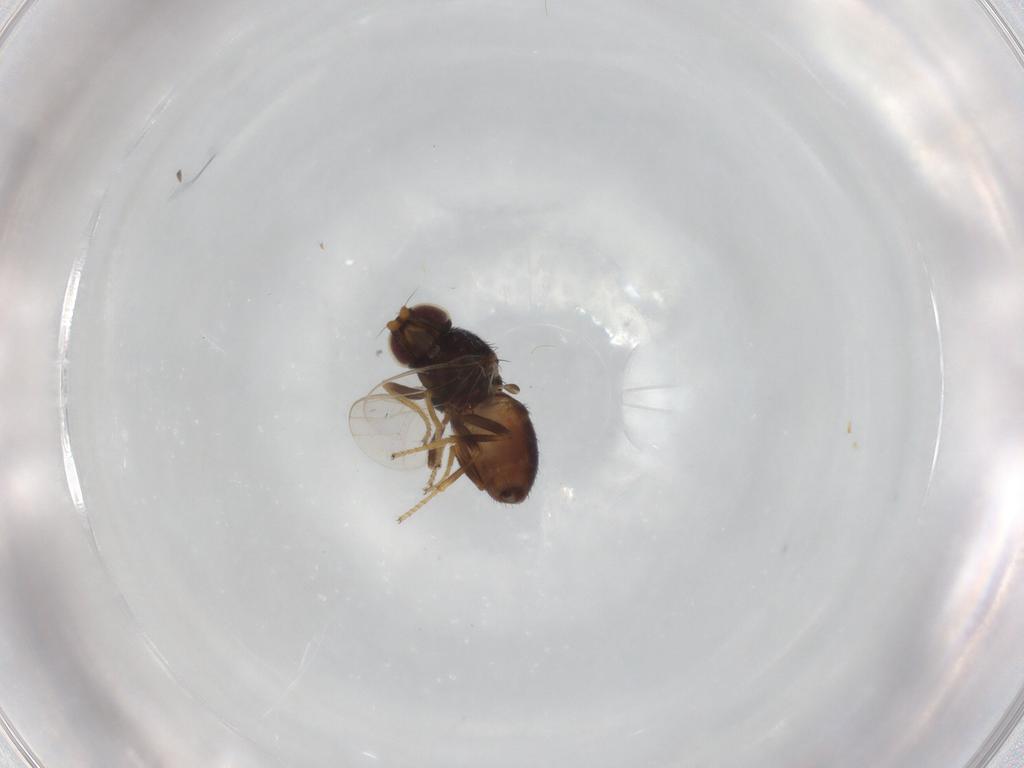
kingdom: Animalia
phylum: Arthropoda
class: Insecta
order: Diptera
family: Chloropidae
